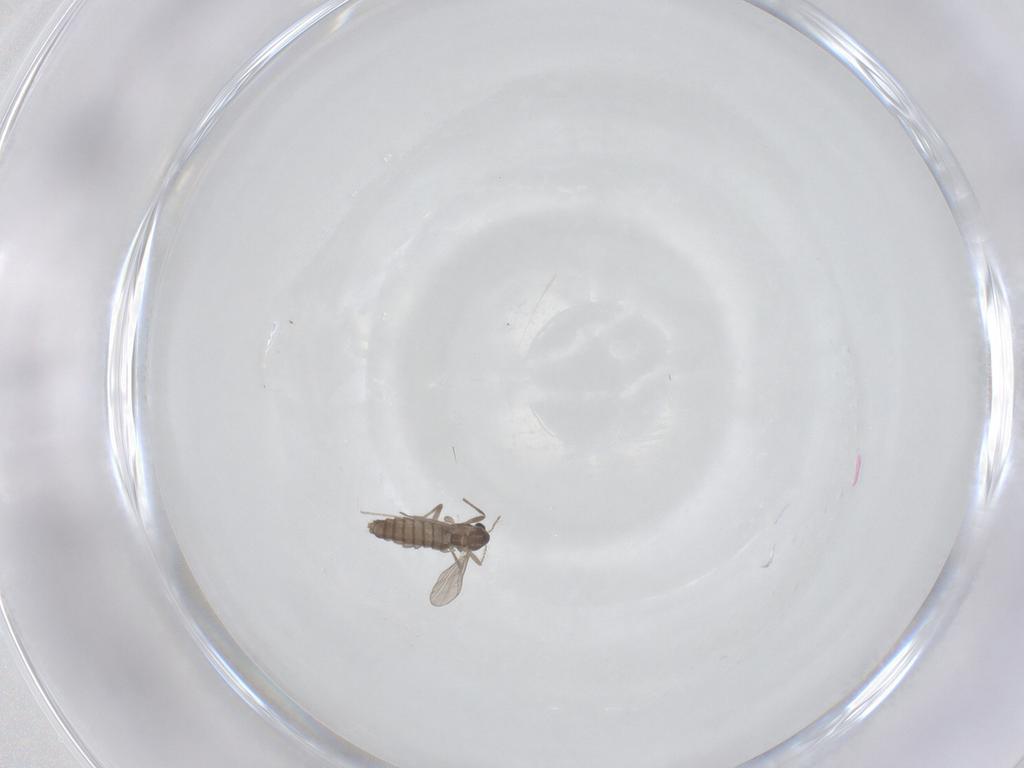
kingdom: Animalia
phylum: Arthropoda
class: Insecta
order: Diptera
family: Chironomidae
